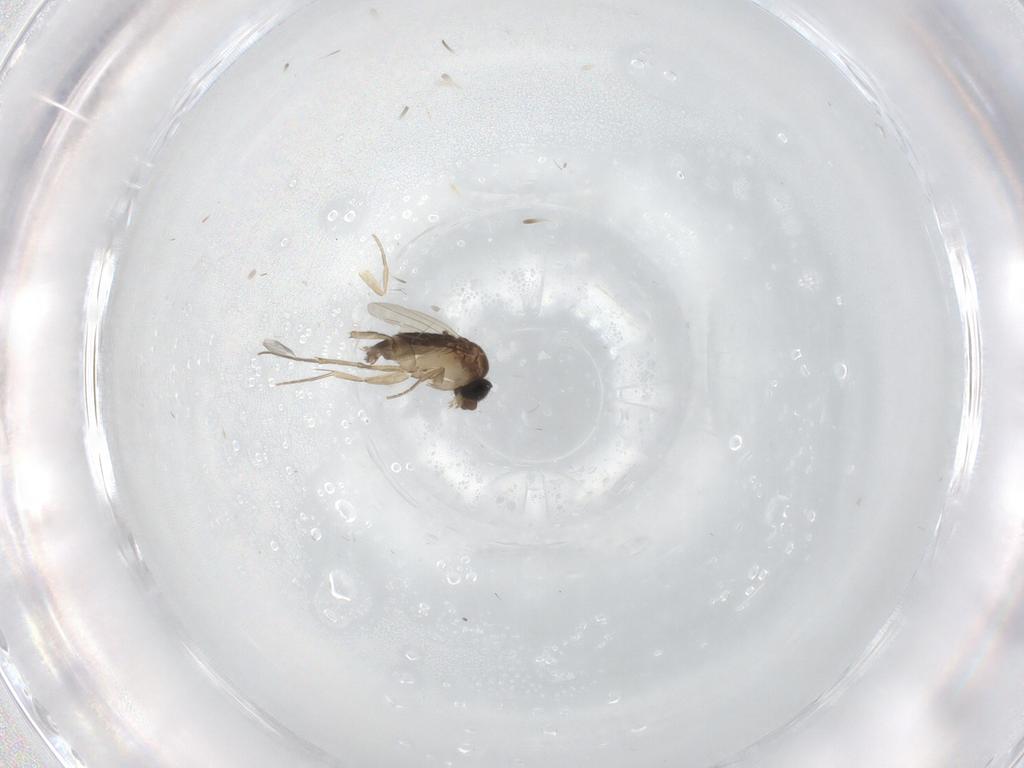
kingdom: Animalia
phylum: Arthropoda
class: Insecta
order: Diptera
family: Phoridae
